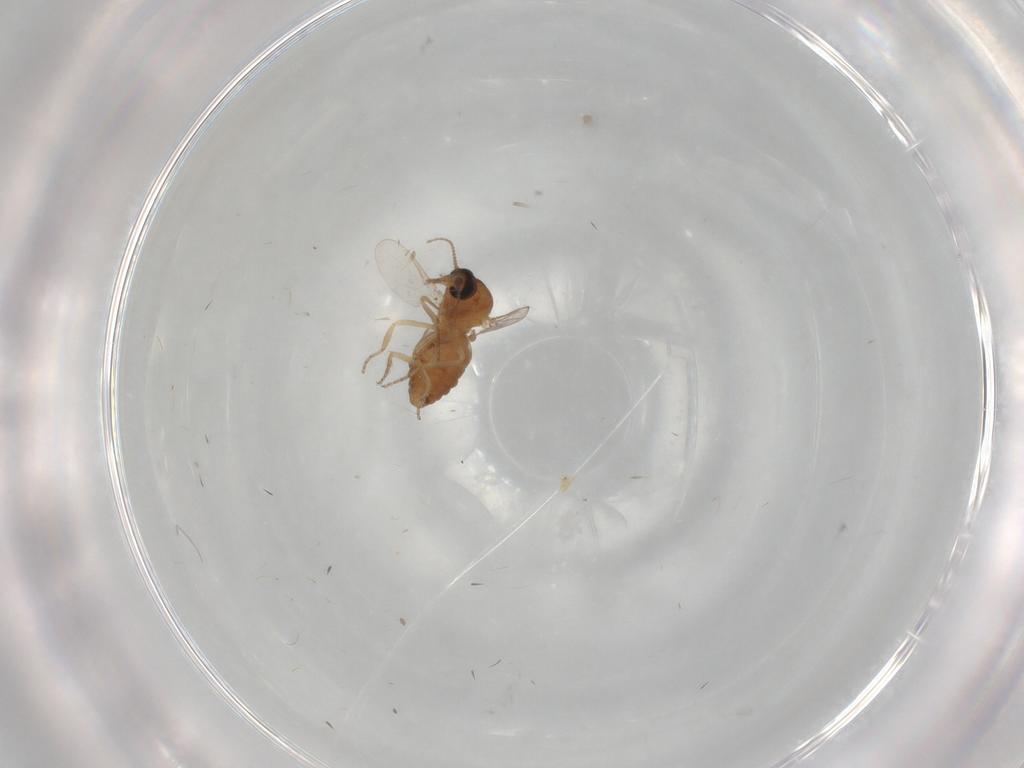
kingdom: Animalia
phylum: Arthropoda
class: Insecta
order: Diptera
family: Ceratopogonidae
